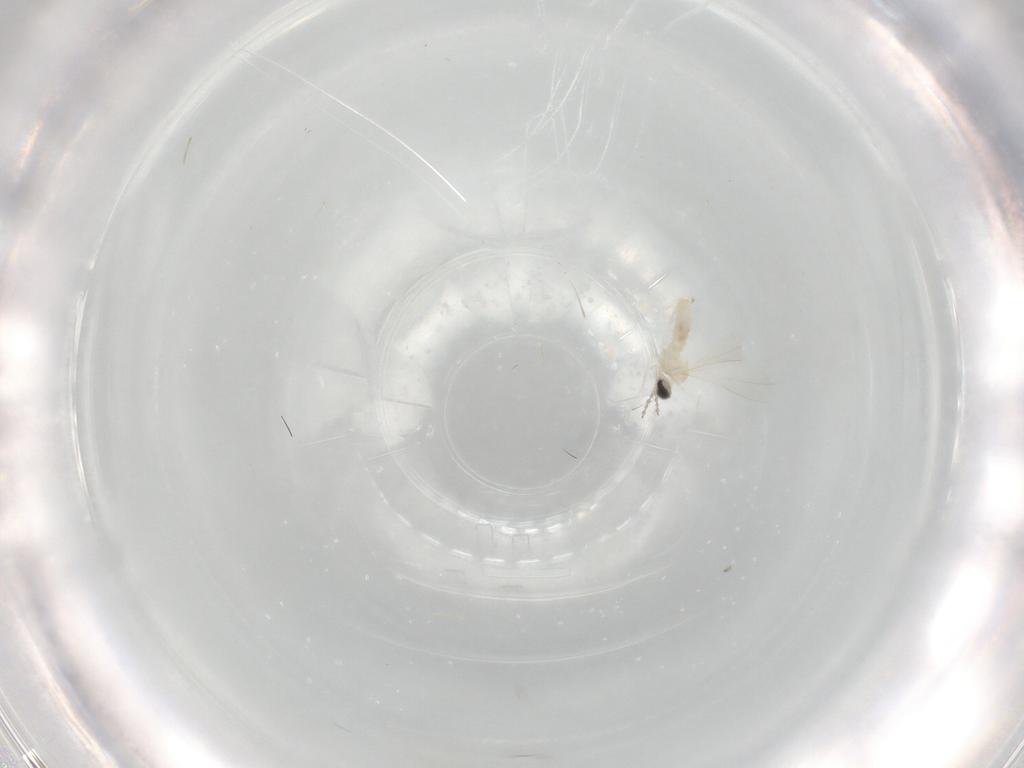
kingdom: Animalia
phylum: Arthropoda
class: Insecta
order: Diptera
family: Cecidomyiidae
